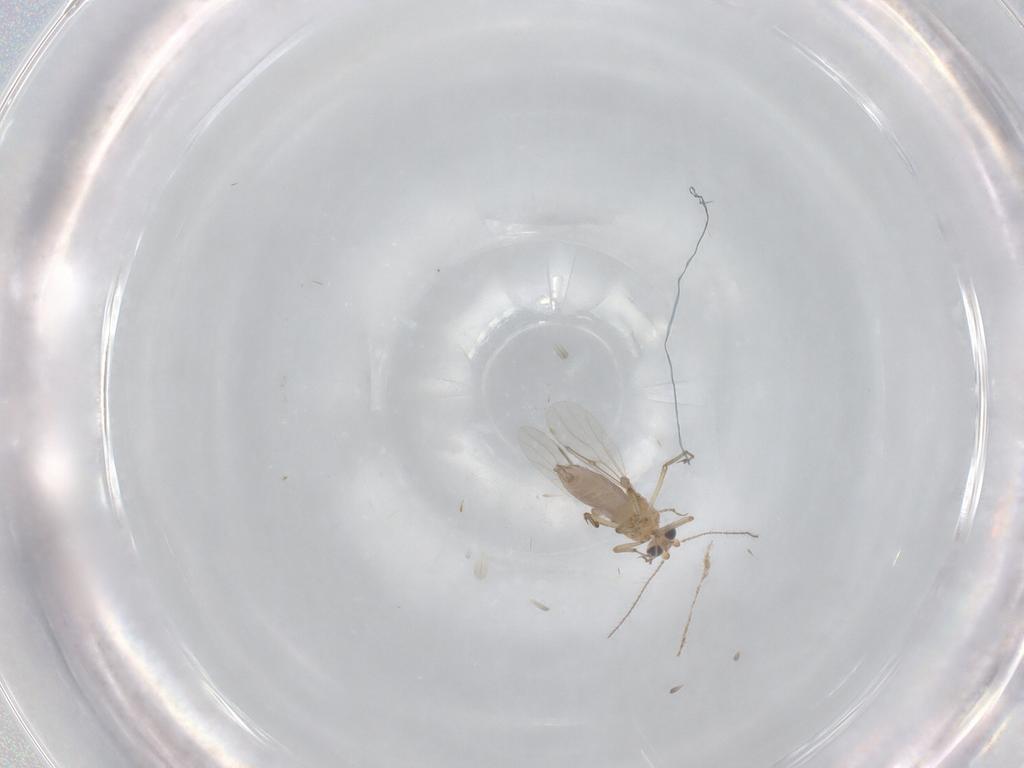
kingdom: Animalia
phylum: Arthropoda
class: Insecta
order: Diptera
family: Ceratopogonidae
